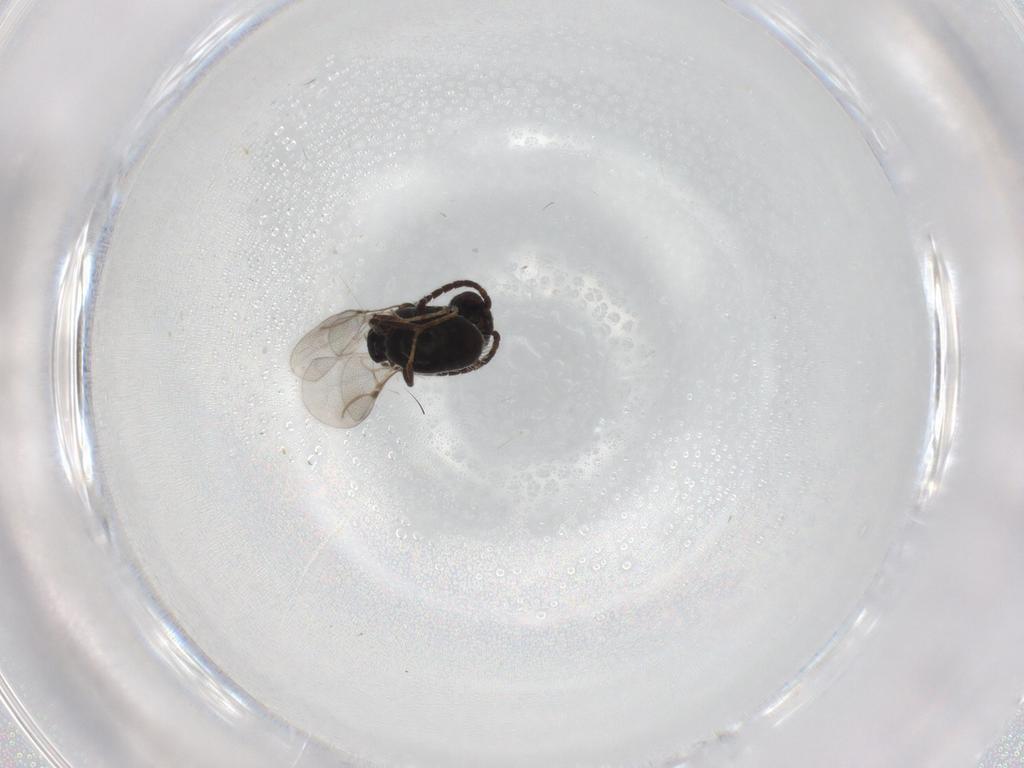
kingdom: Animalia
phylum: Arthropoda
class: Insecta
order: Hymenoptera
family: Bethylidae
